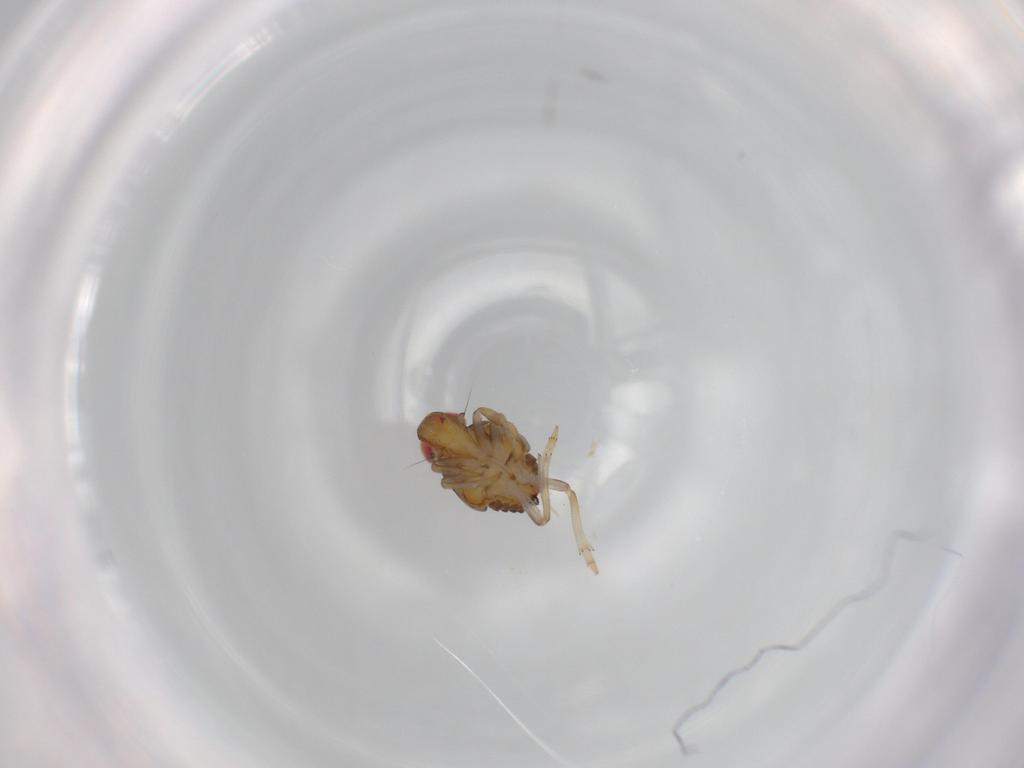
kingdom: Animalia
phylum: Arthropoda
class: Insecta
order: Hemiptera
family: Issidae
